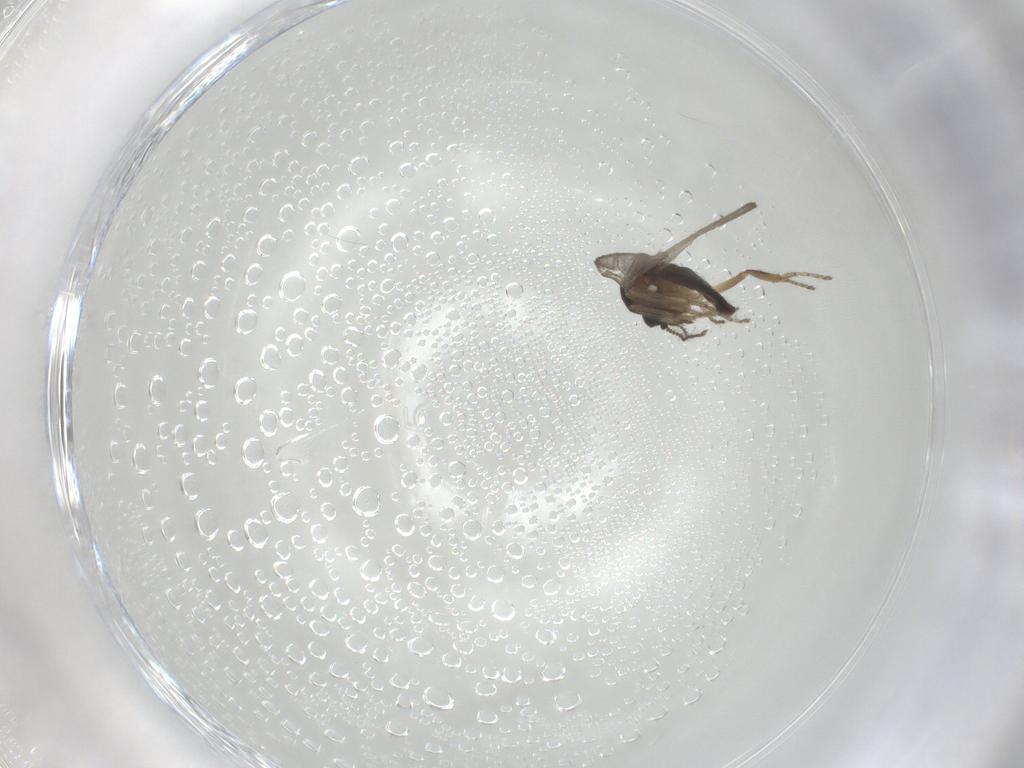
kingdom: Animalia
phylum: Arthropoda
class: Insecta
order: Diptera
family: Ceratopogonidae
